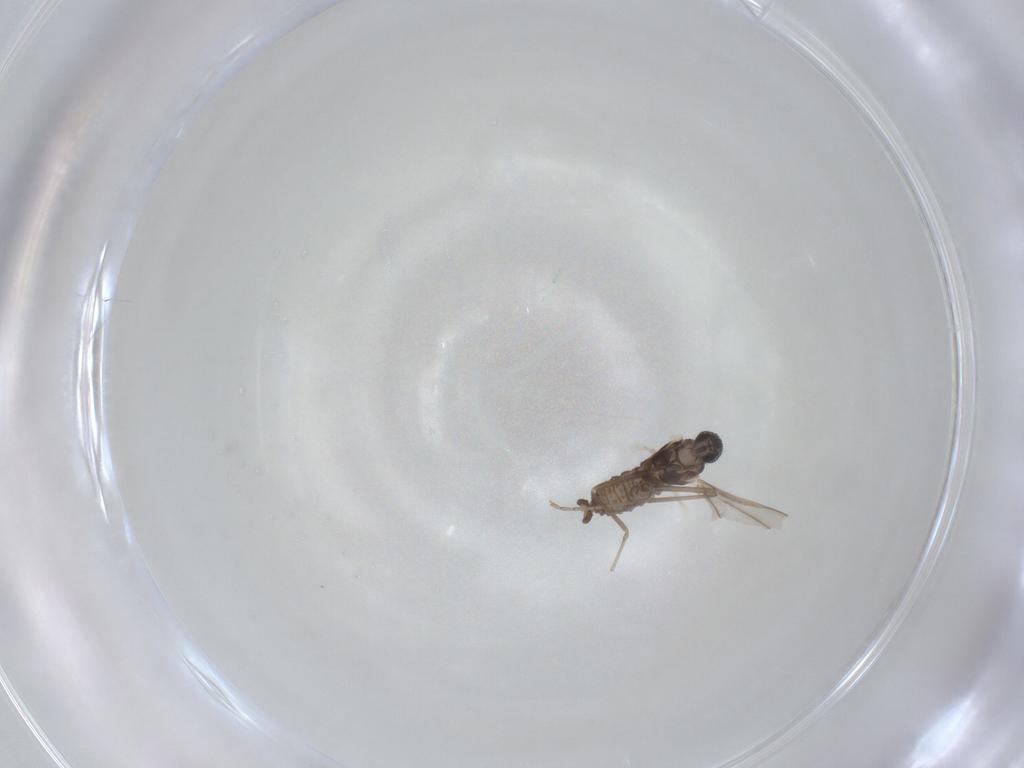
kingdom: Animalia
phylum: Arthropoda
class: Insecta
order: Diptera
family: Cecidomyiidae
